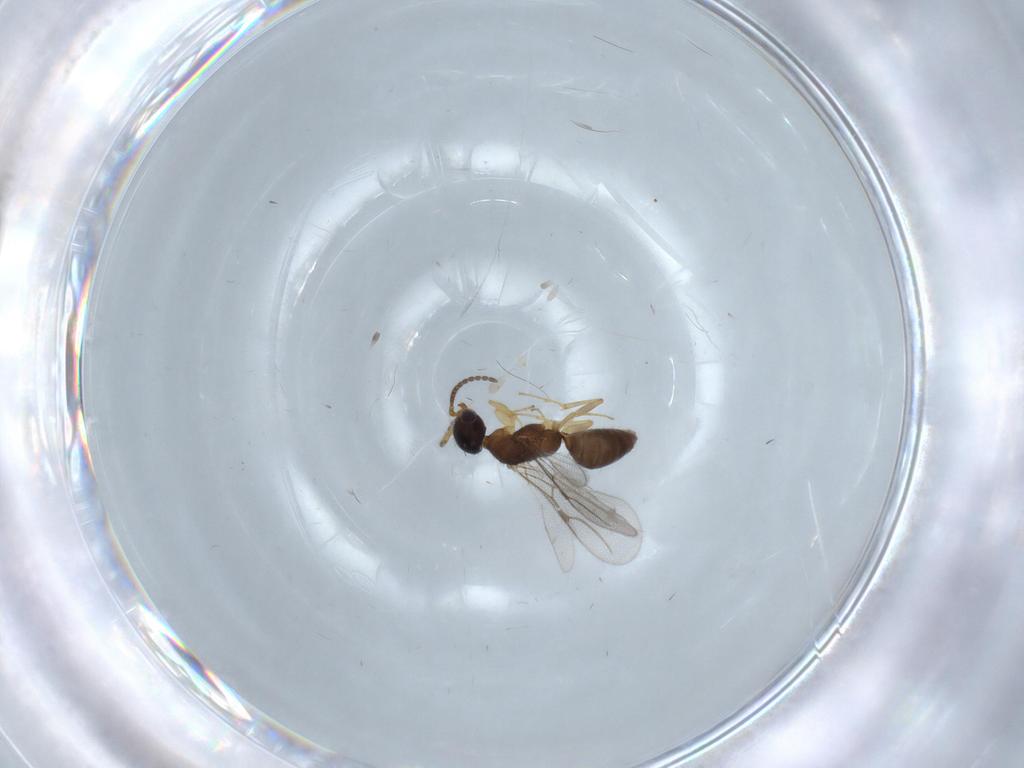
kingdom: Animalia
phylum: Arthropoda
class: Insecta
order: Hymenoptera
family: Bethylidae
